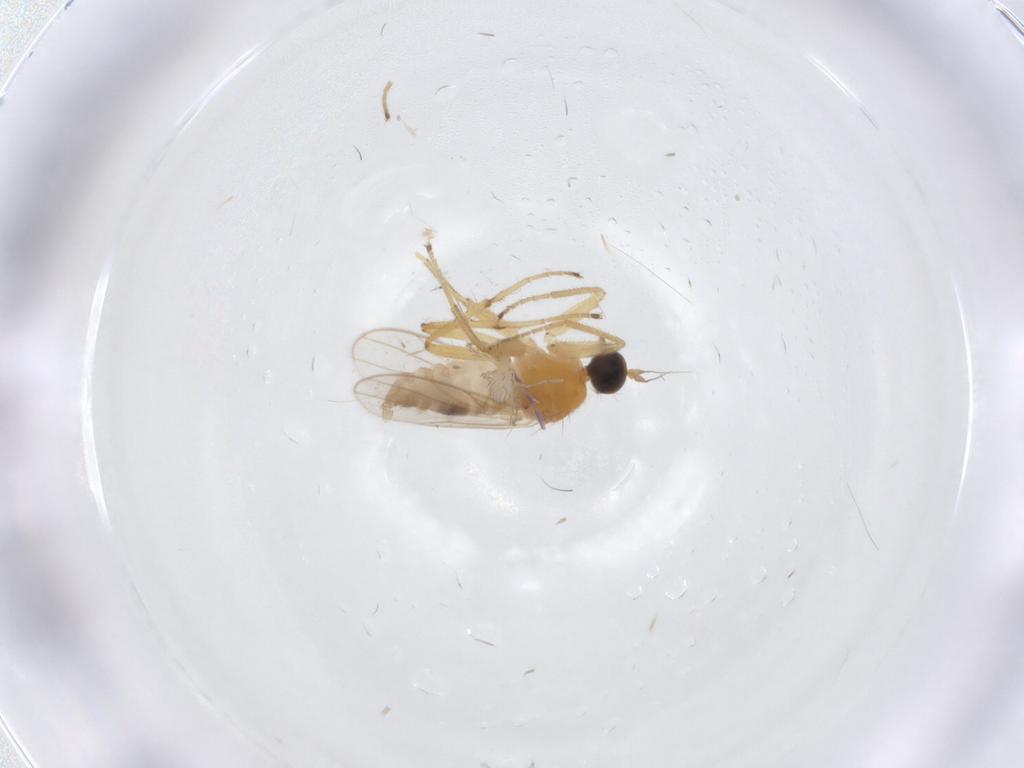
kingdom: Animalia
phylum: Arthropoda
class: Insecta
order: Diptera
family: Hybotidae
